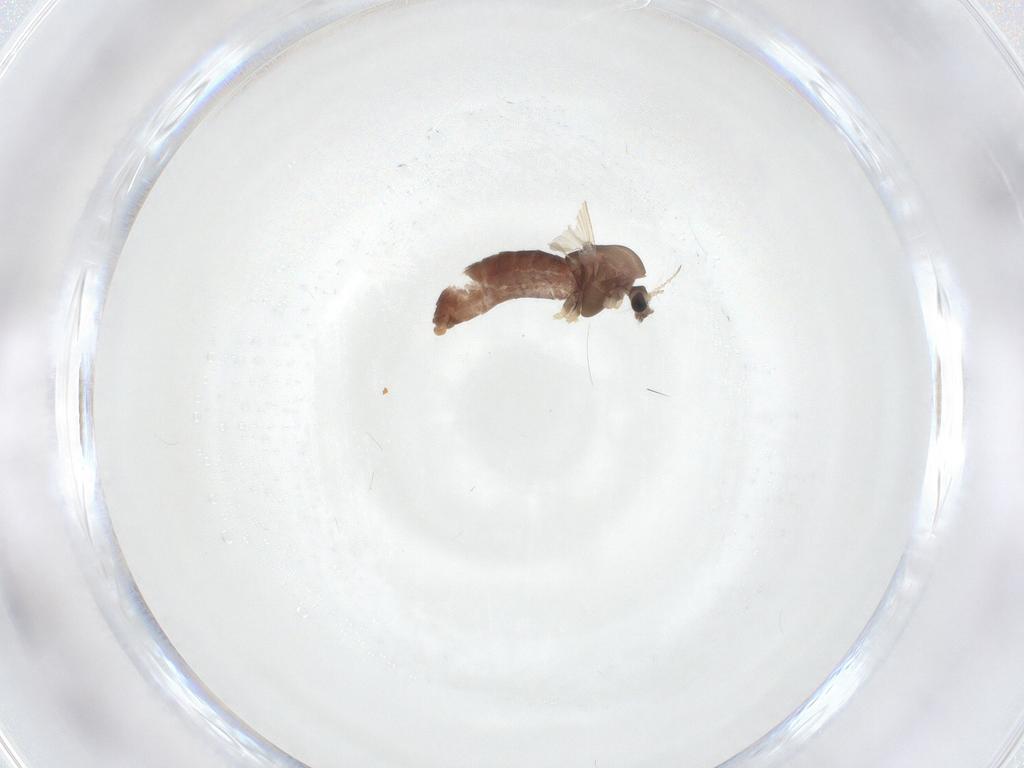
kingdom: Animalia
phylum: Arthropoda
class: Insecta
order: Diptera
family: Chironomidae
